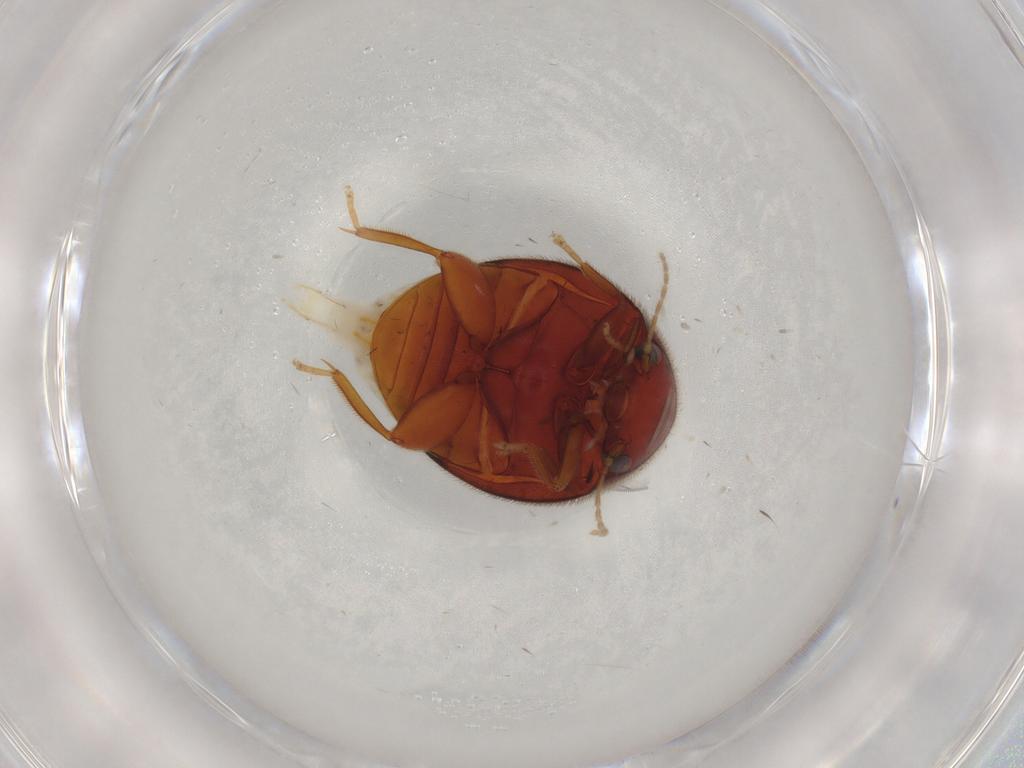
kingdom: Animalia
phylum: Arthropoda
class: Insecta
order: Coleoptera
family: Scirtidae
